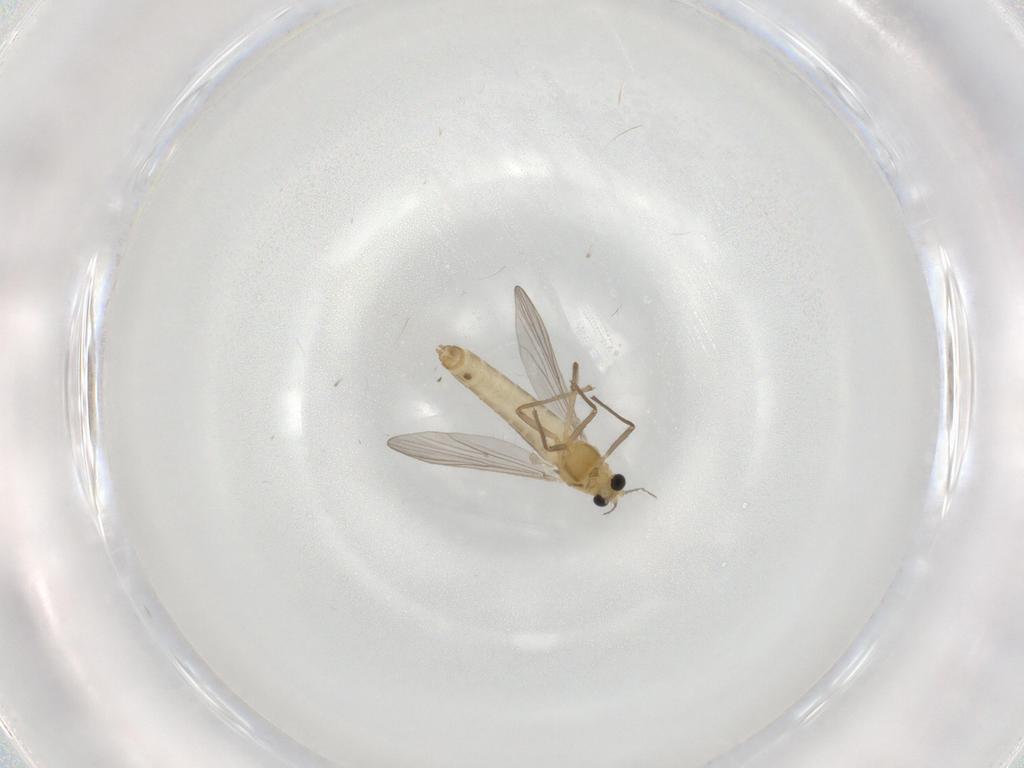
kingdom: Animalia
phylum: Arthropoda
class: Insecta
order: Diptera
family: Chironomidae
